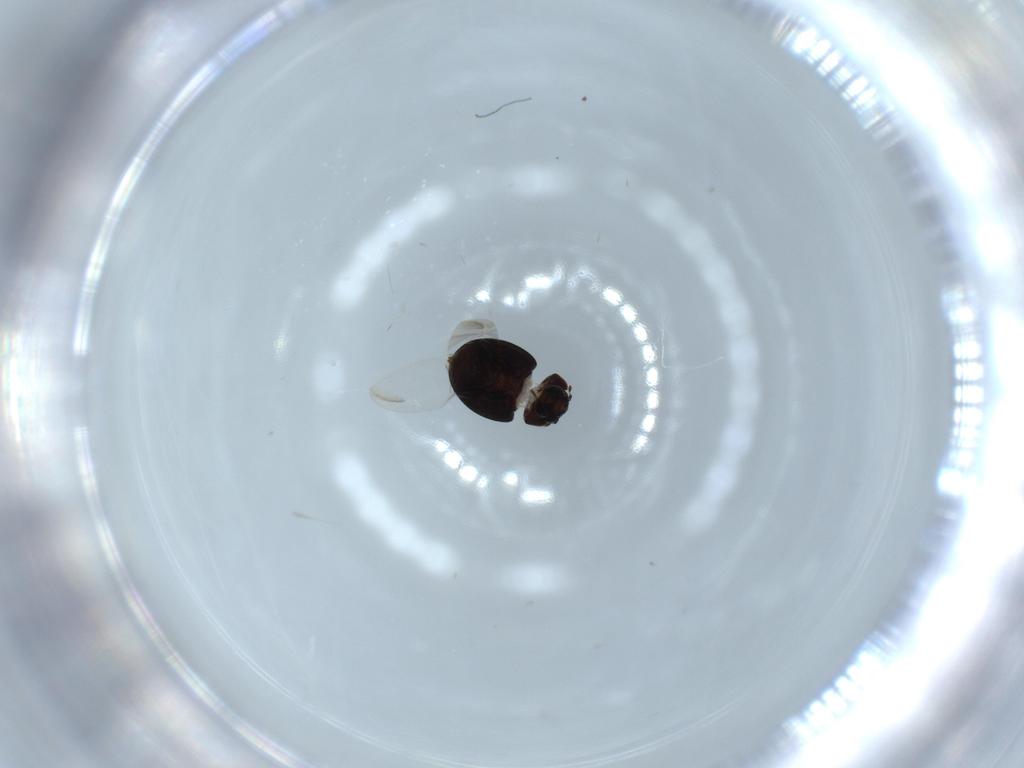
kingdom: Animalia
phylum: Arthropoda
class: Insecta
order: Coleoptera
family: Coccinellidae
